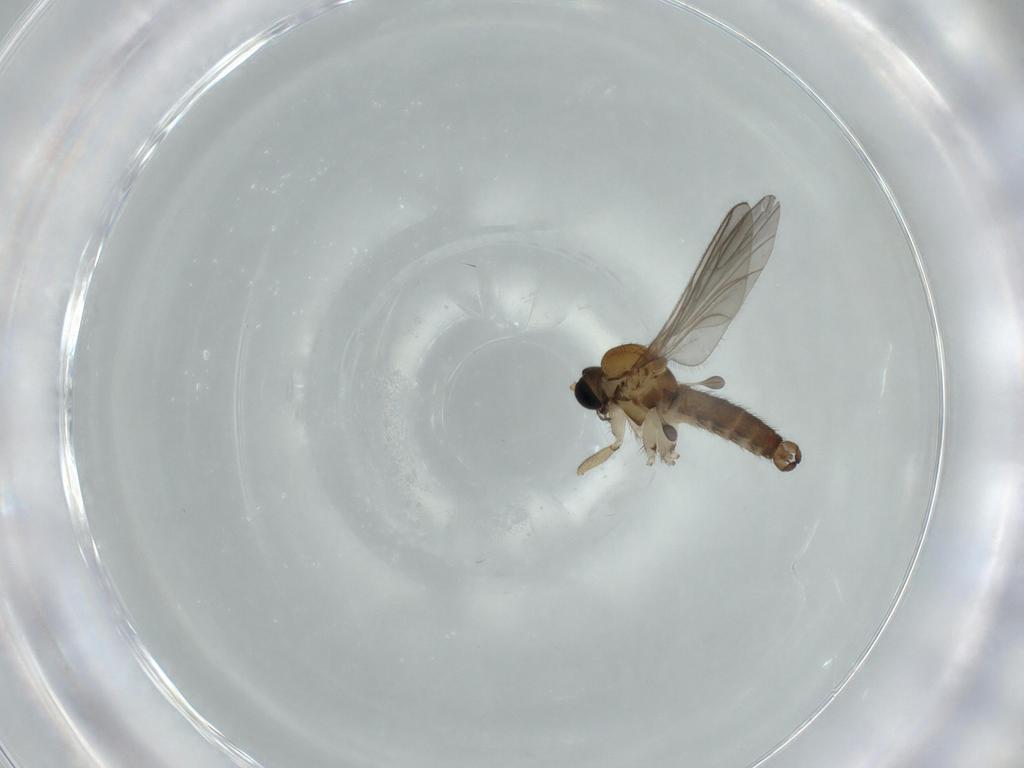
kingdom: Animalia
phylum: Arthropoda
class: Insecta
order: Diptera
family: Sciaridae
